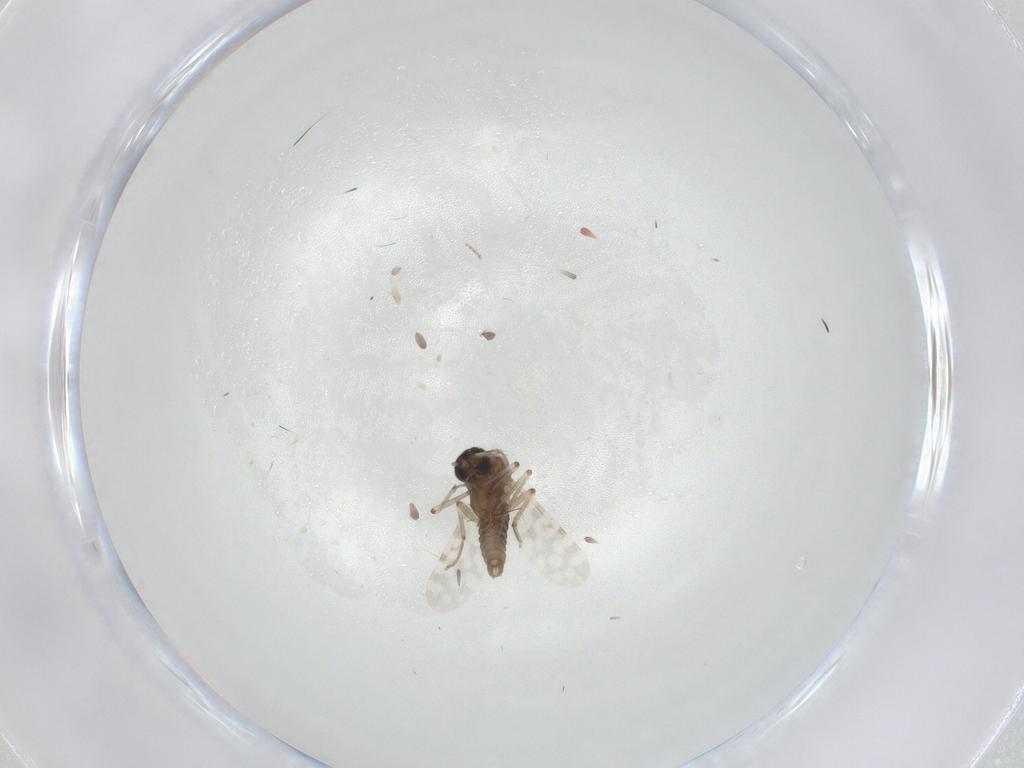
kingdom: Animalia
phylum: Arthropoda
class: Insecta
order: Diptera
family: Chironomidae
